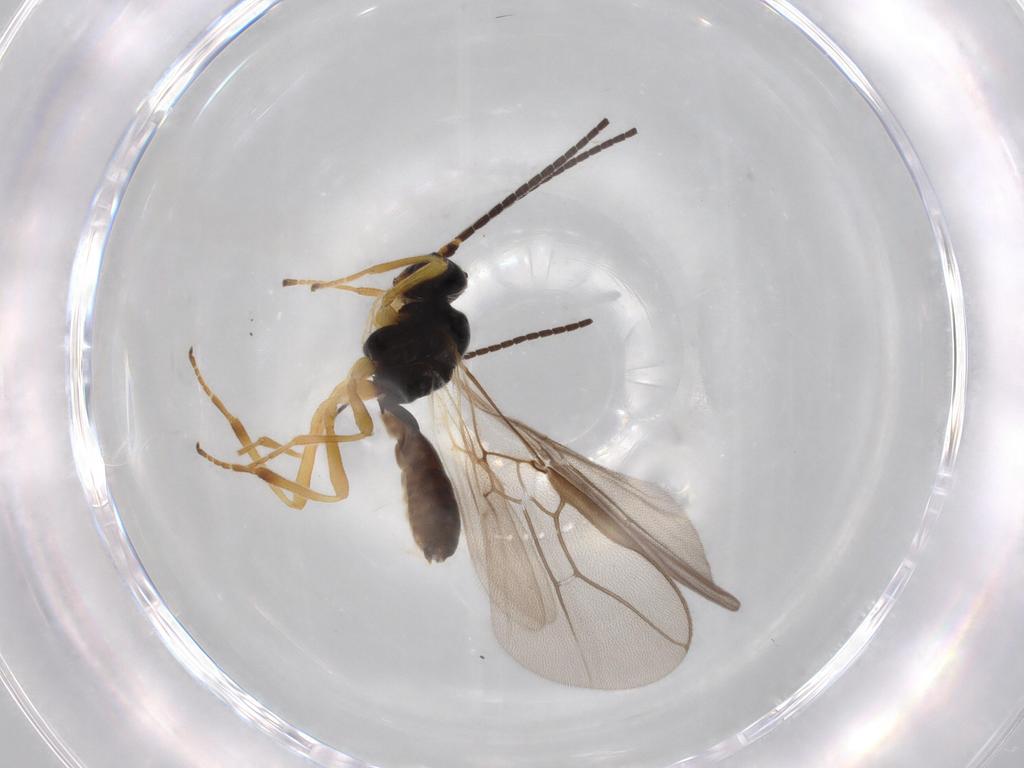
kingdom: Animalia
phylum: Arthropoda
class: Insecta
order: Hymenoptera
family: Braconidae
